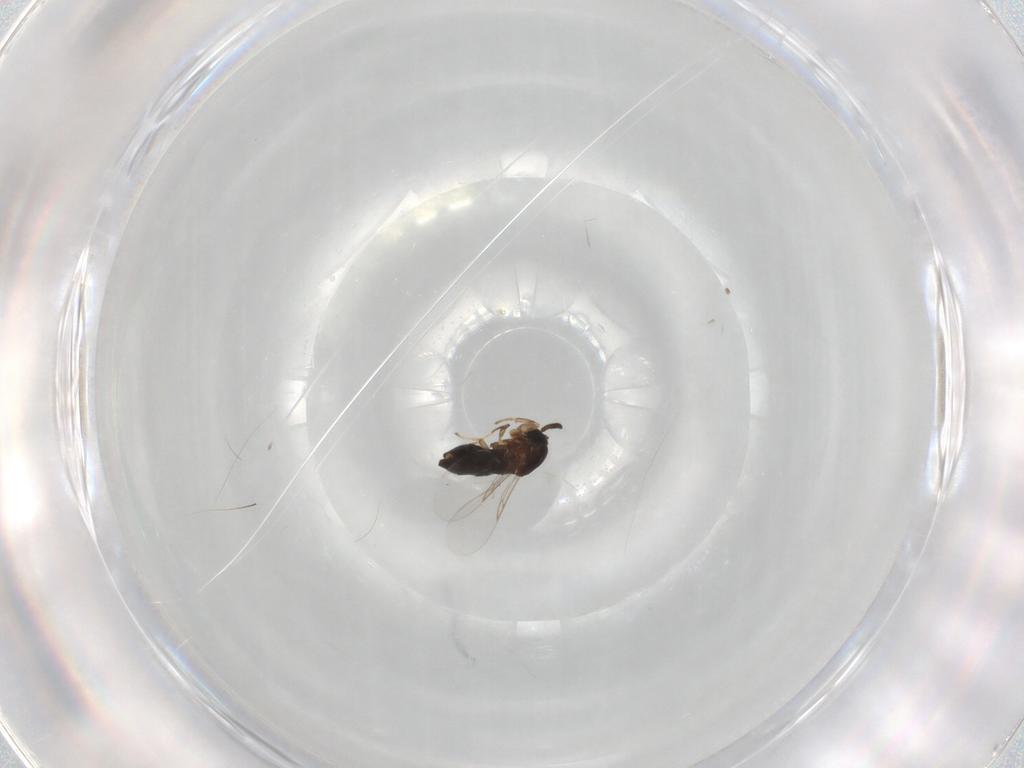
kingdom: Animalia
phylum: Arthropoda
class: Insecta
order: Diptera
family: Scatopsidae
